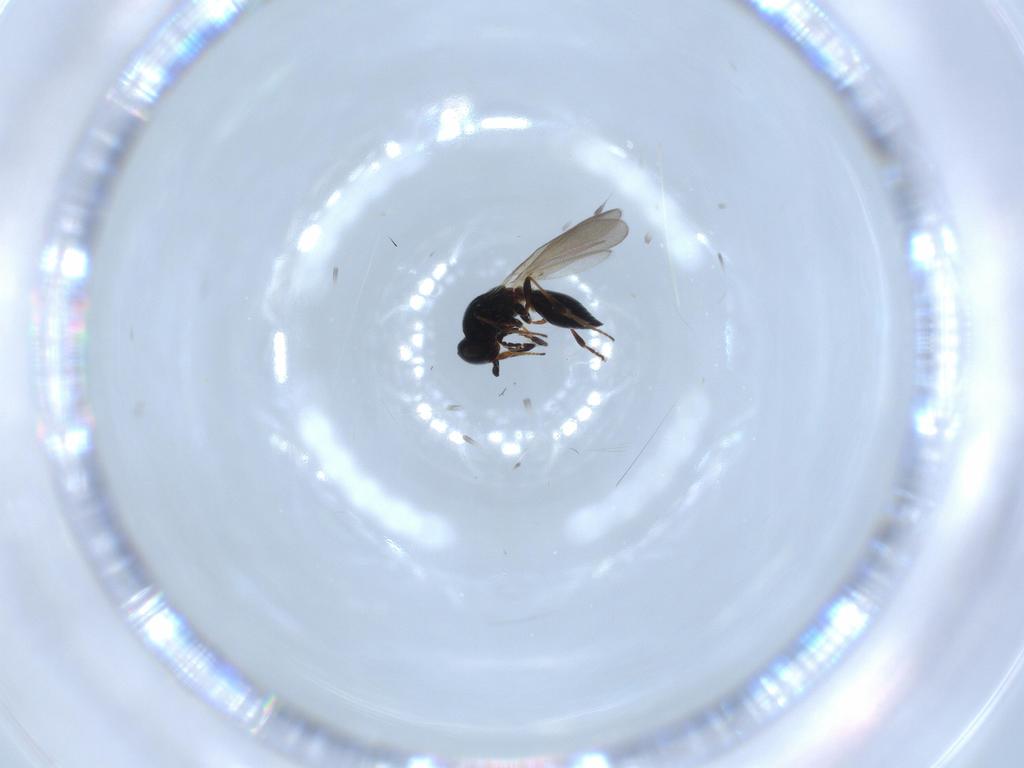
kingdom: Animalia
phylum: Arthropoda
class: Insecta
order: Hymenoptera
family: Platygastridae
